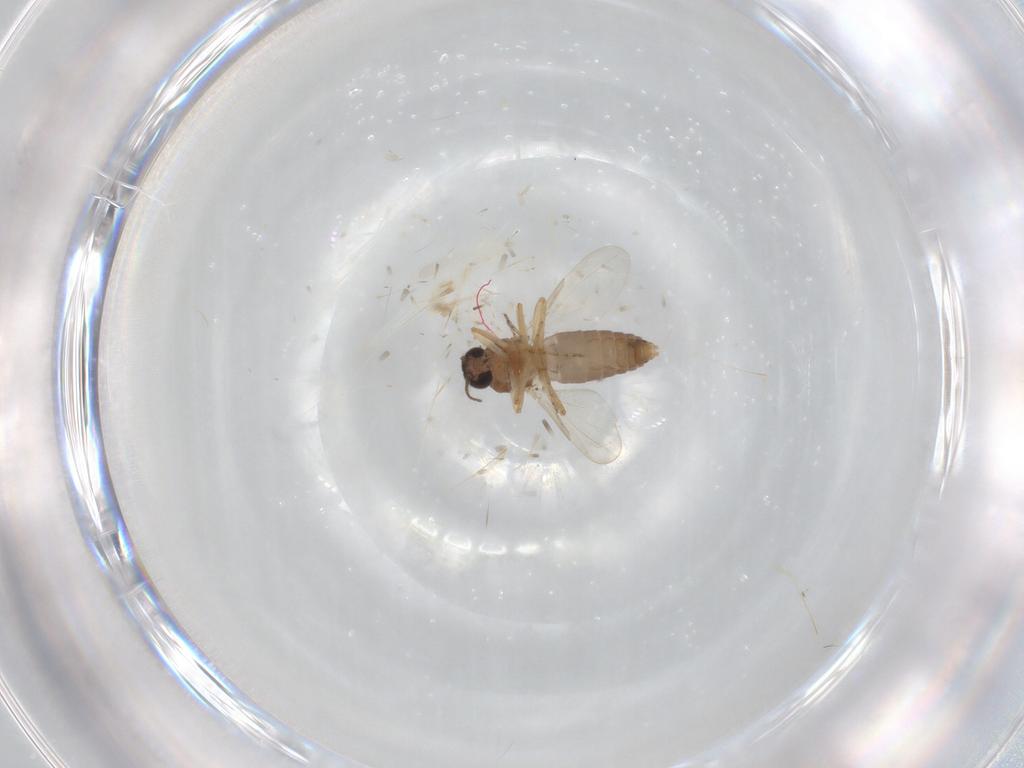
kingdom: Animalia
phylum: Arthropoda
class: Insecta
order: Diptera
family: Ceratopogonidae
